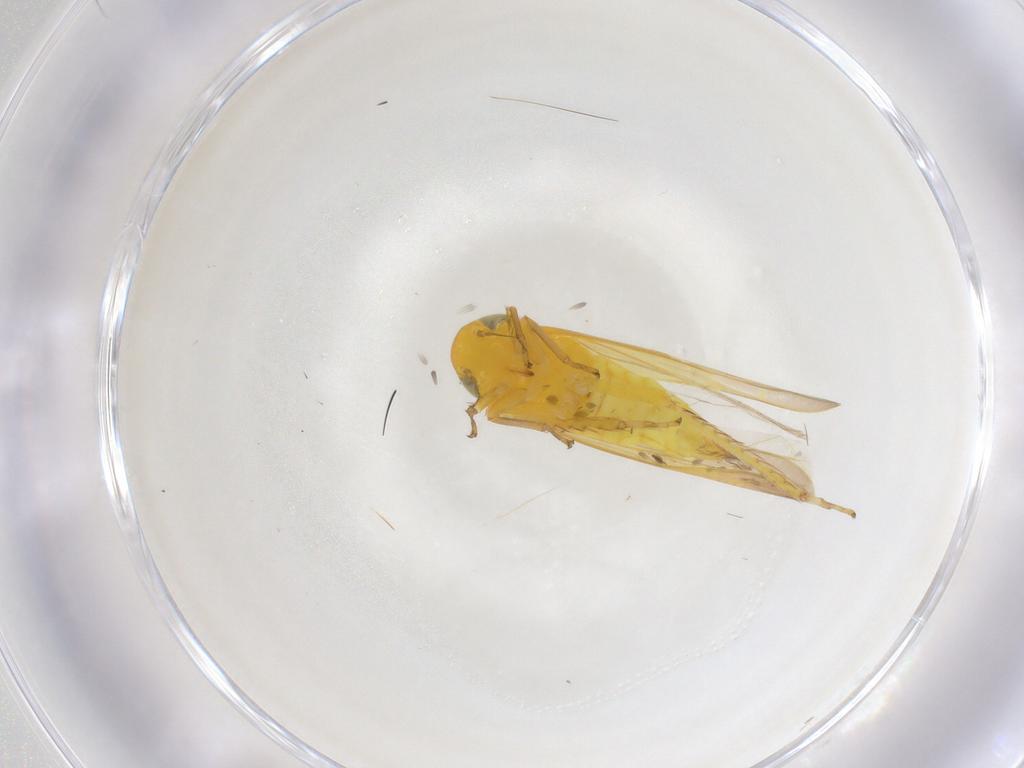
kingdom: Animalia
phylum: Arthropoda
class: Insecta
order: Hemiptera
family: Cicadellidae
